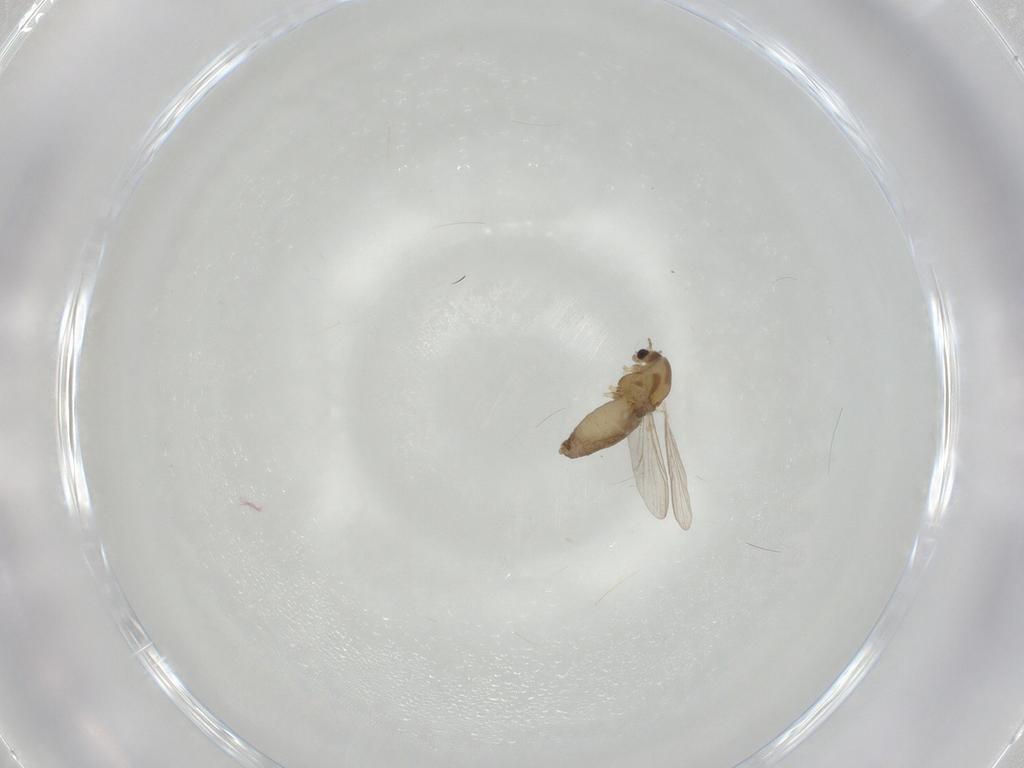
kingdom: Animalia
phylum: Arthropoda
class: Insecta
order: Diptera
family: Chironomidae
